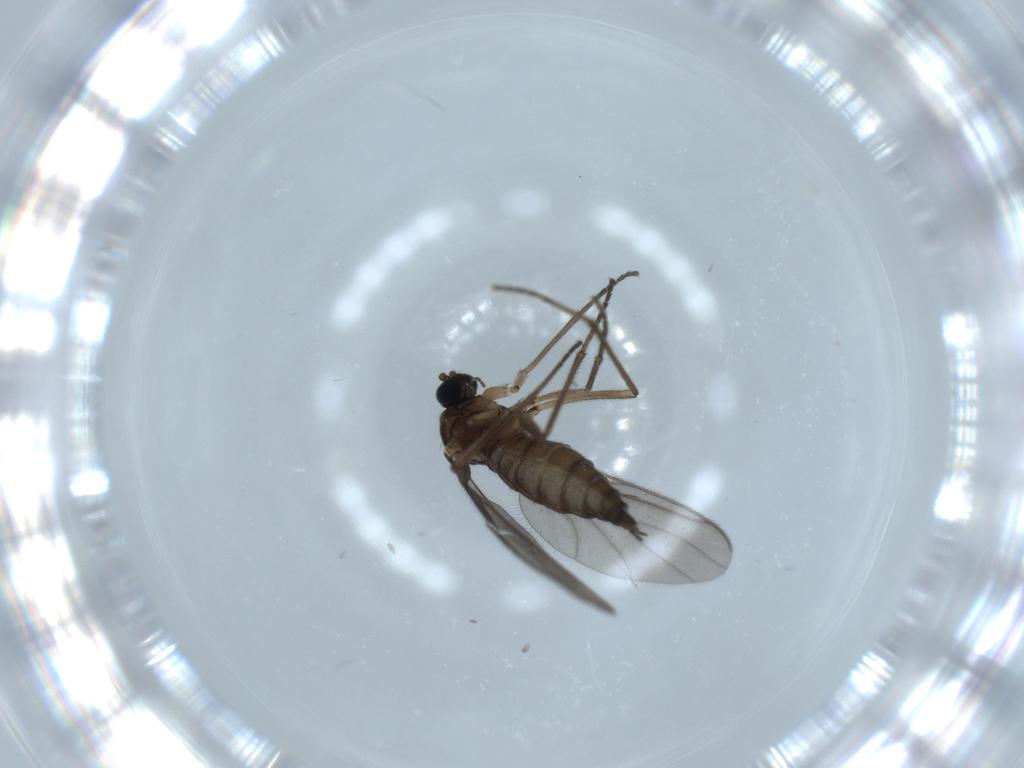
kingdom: Animalia
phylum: Arthropoda
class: Insecta
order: Diptera
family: Sciaridae
